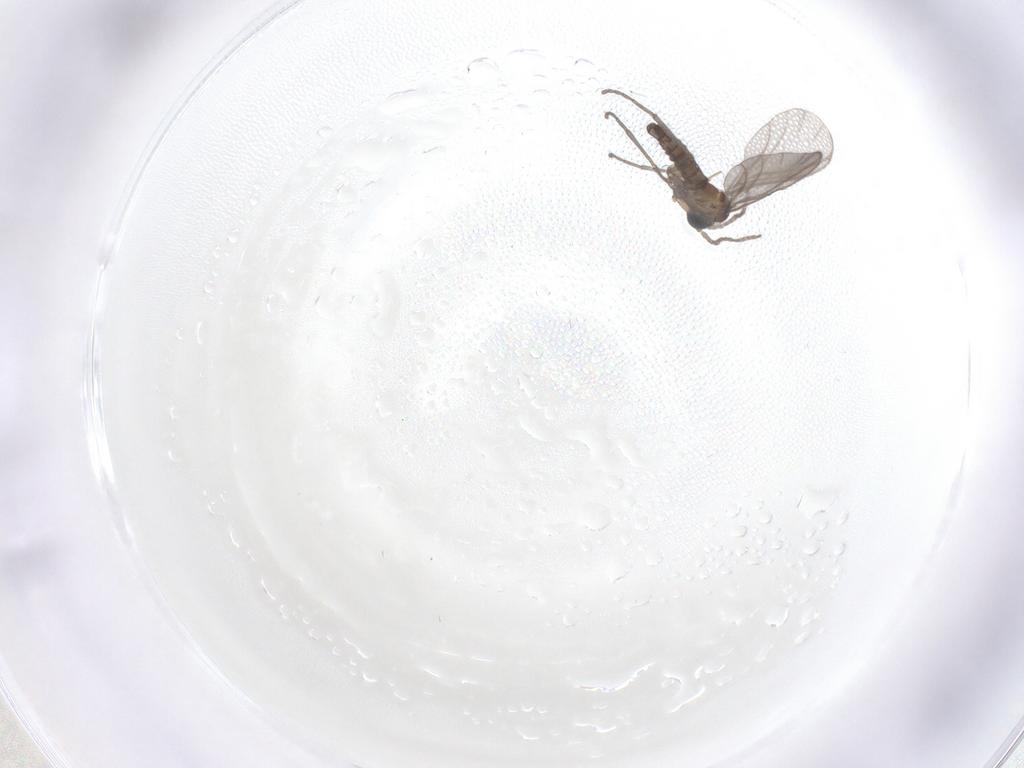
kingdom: Animalia
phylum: Arthropoda
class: Insecta
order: Diptera
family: Sciaridae
